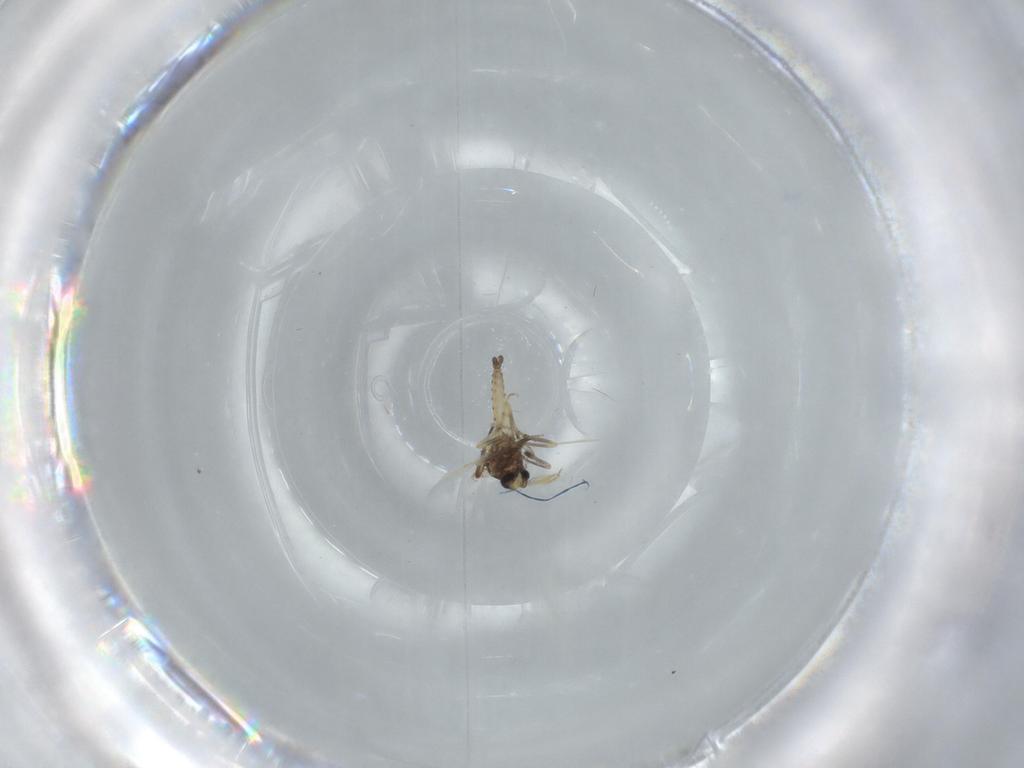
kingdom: Animalia
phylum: Arthropoda
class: Insecta
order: Diptera
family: Ceratopogonidae
